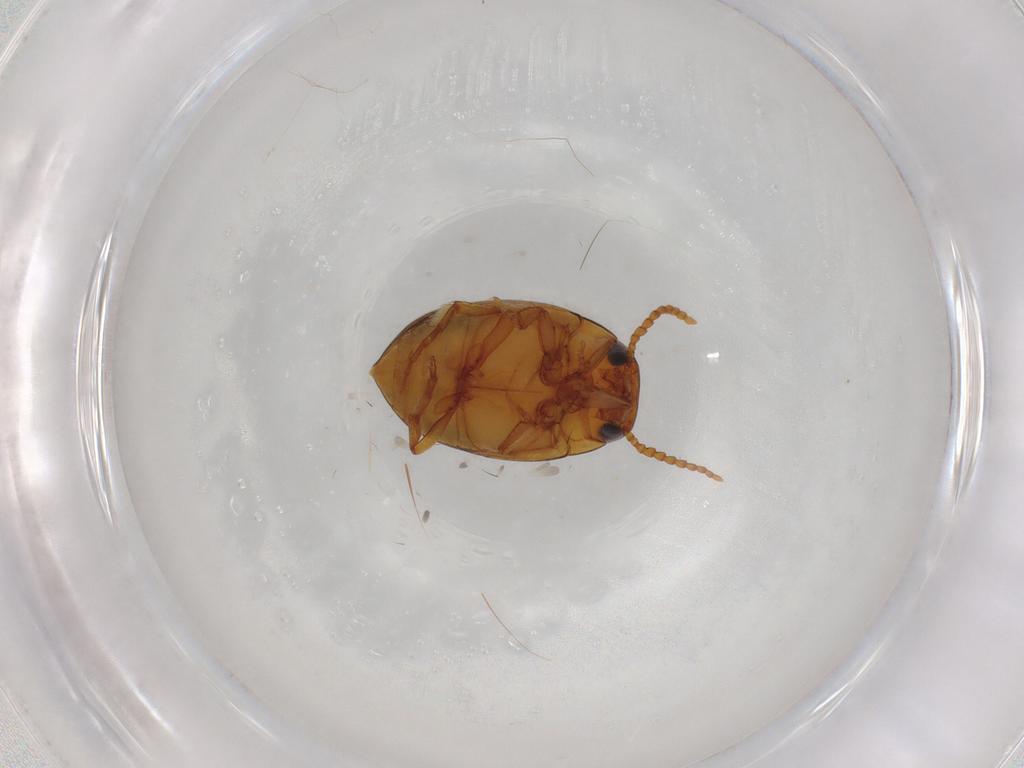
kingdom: Animalia
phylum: Arthropoda
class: Insecta
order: Coleoptera
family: Dytiscidae
